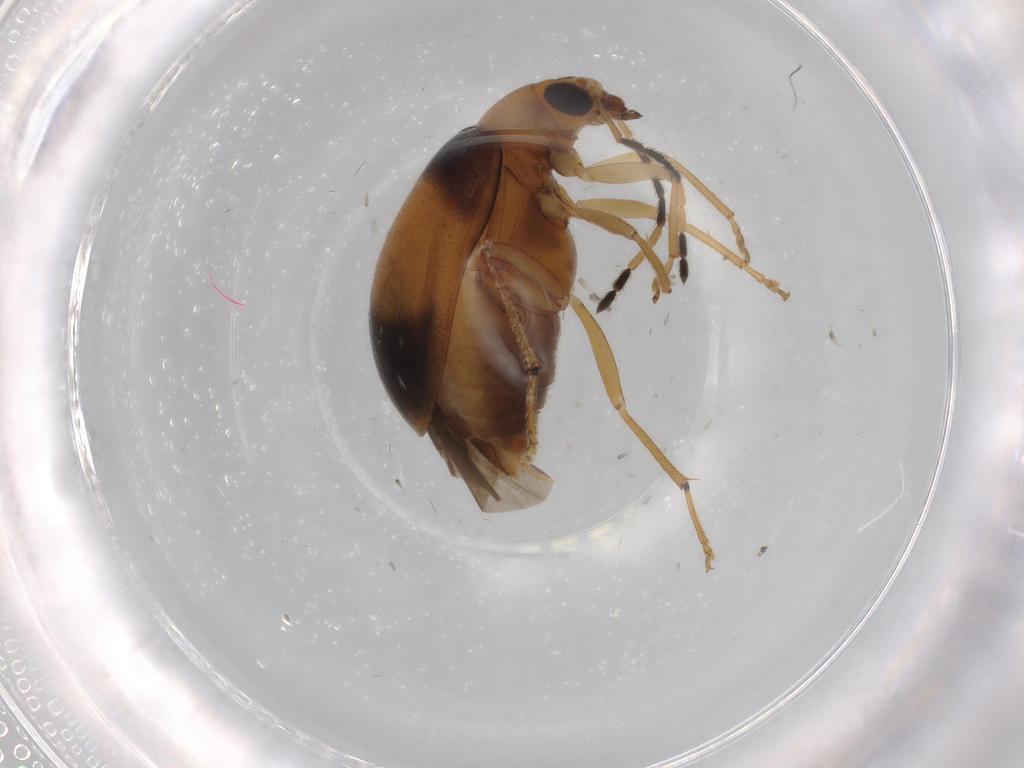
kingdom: Animalia
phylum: Arthropoda
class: Insecta
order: Coleoptera
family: Chrysomelidae
